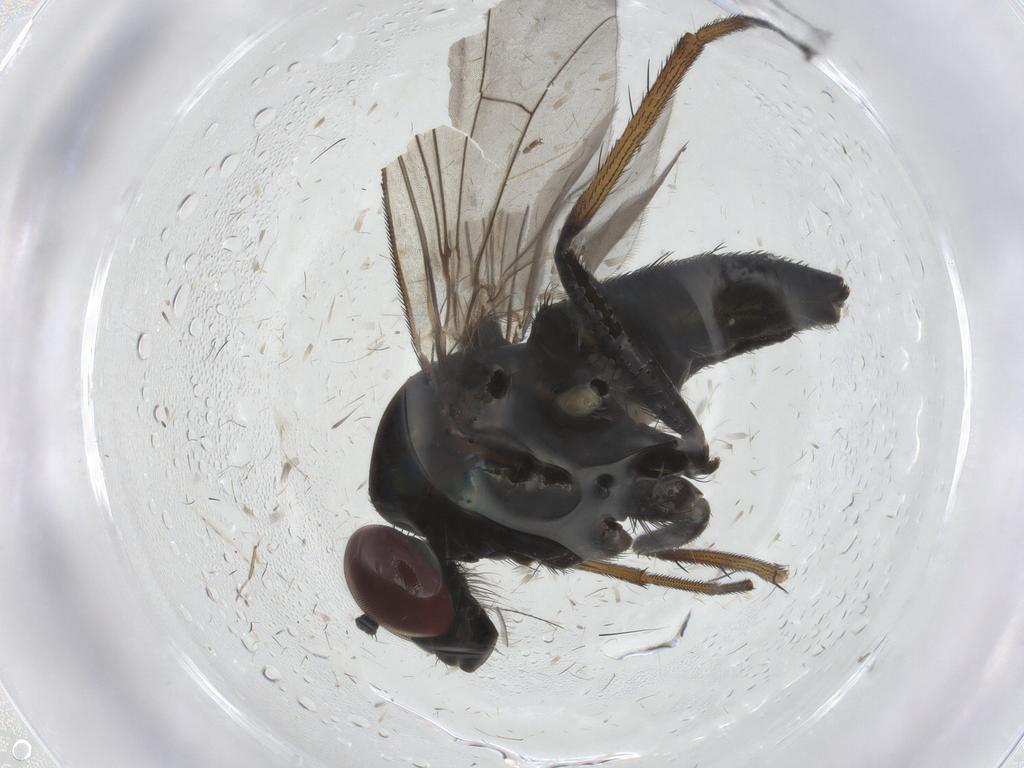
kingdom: Animalia
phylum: Arthropoda
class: Insecta
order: Diptera
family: Dolichopodidae
